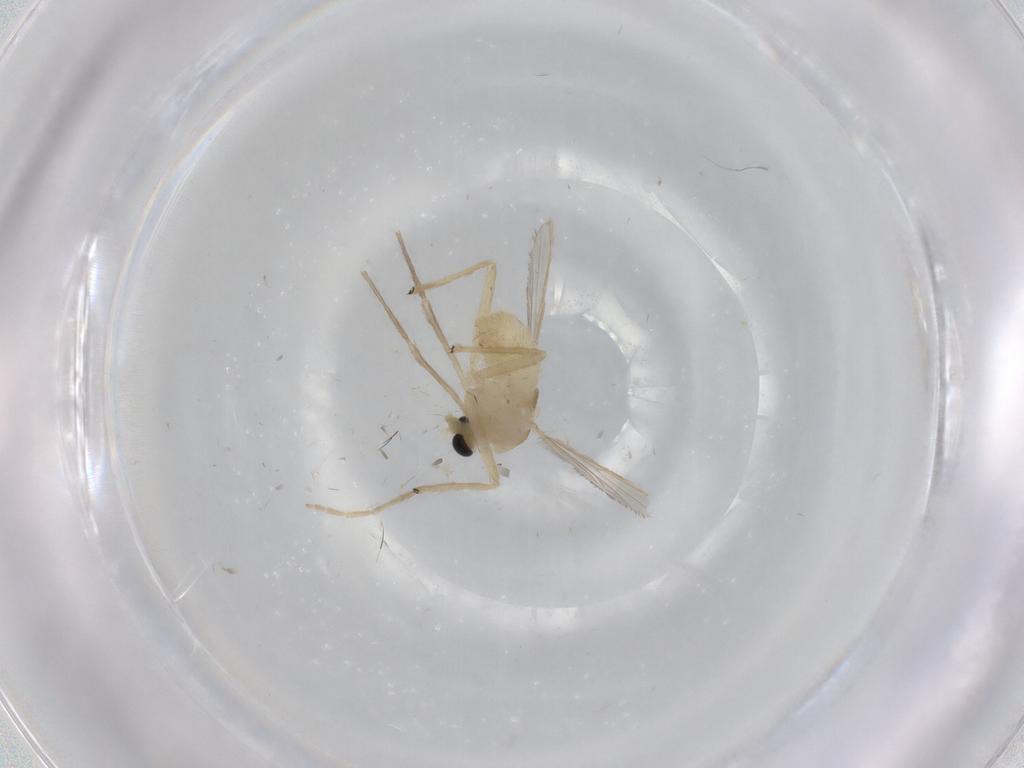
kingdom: Animalia
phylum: Arthropoda
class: Insecta
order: Diptera
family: Chironomidae
